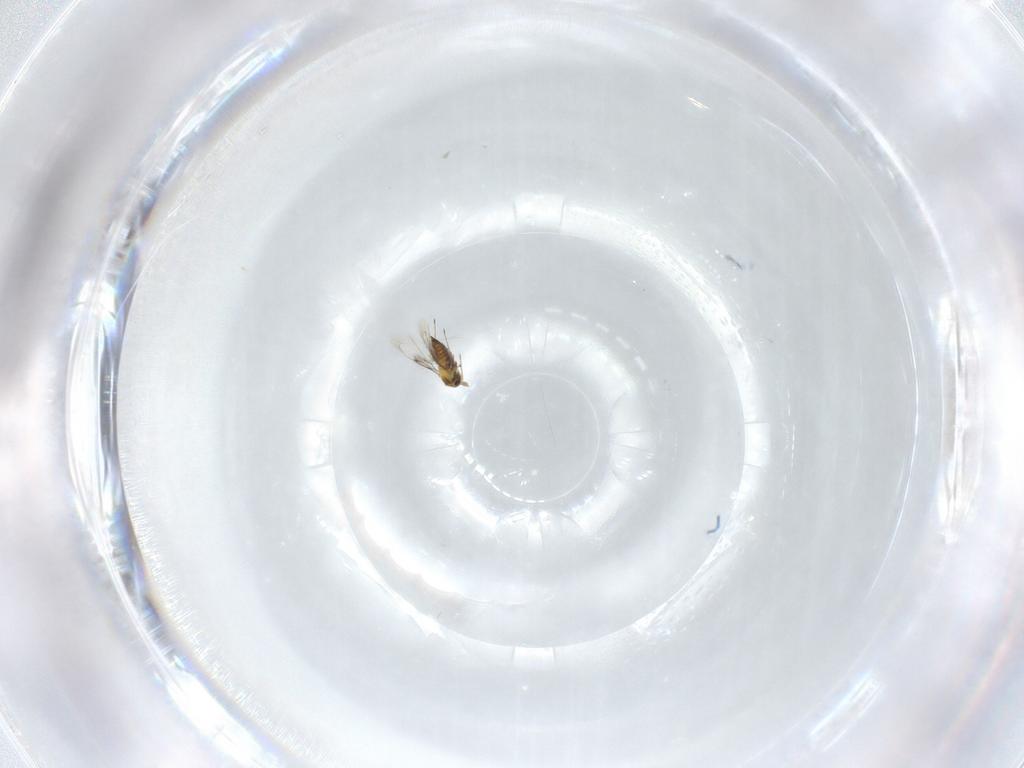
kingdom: Animalia
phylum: Arthropoda
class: Insecta
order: Hymenoptera
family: Trichogrammatidae
